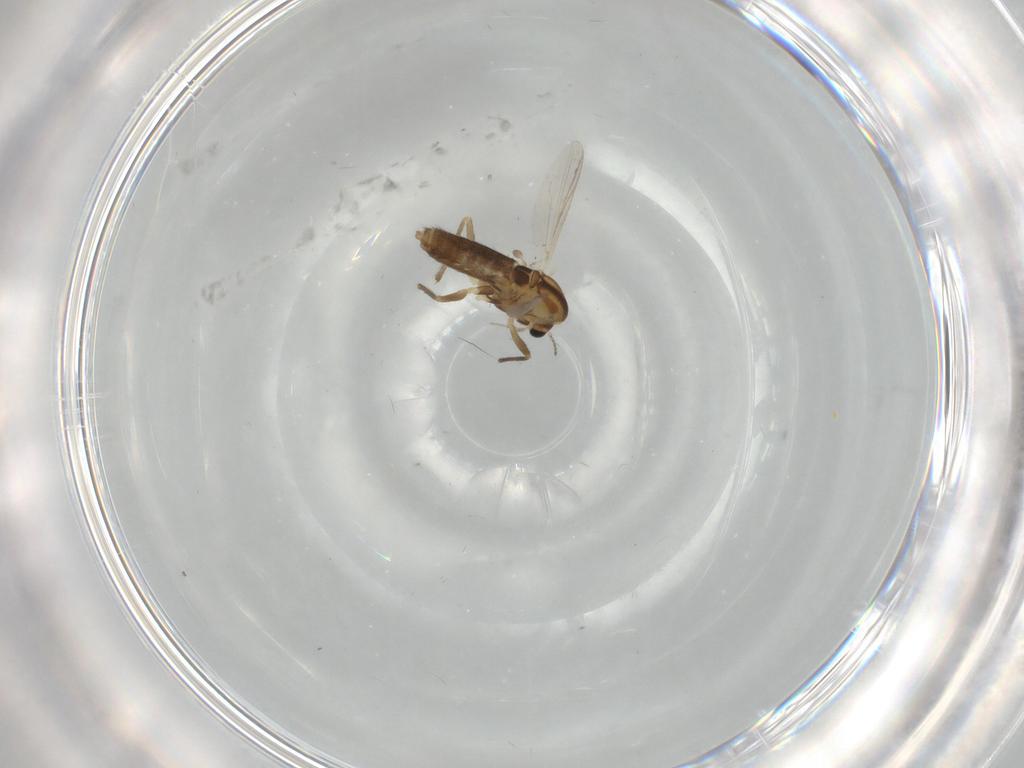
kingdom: Animalia
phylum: Arthropoda
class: Insecta
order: Diptera
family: Chironomidae
